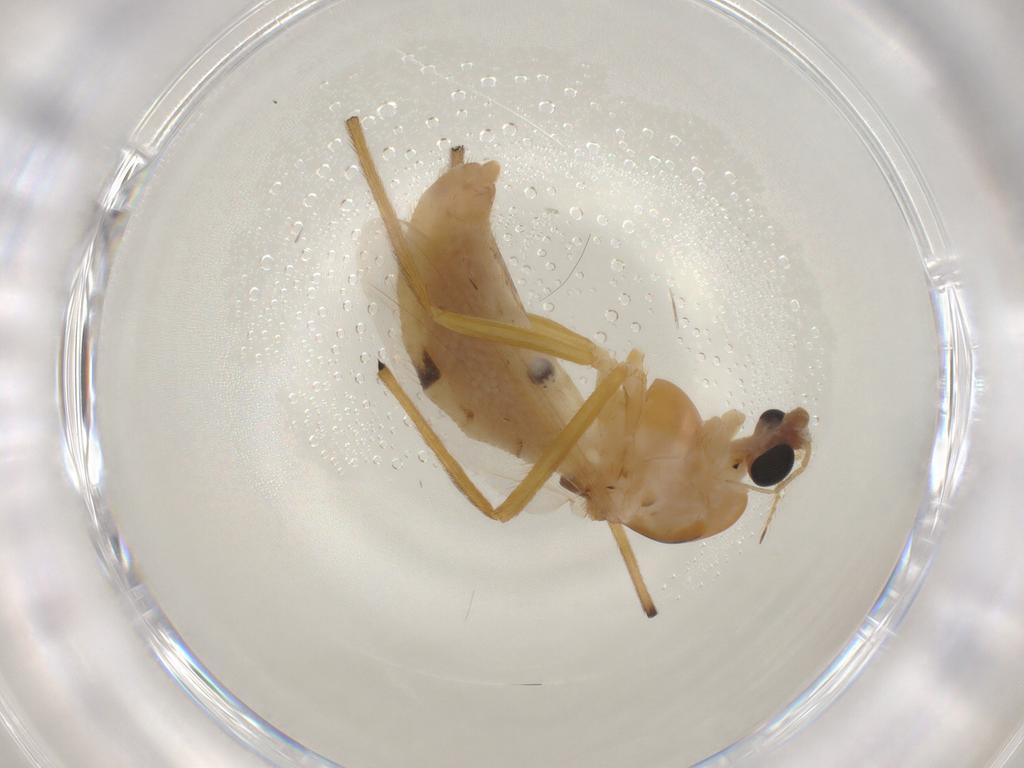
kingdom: Animalia
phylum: Arthropoda
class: Insecta
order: Diptera
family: Chironomidae
